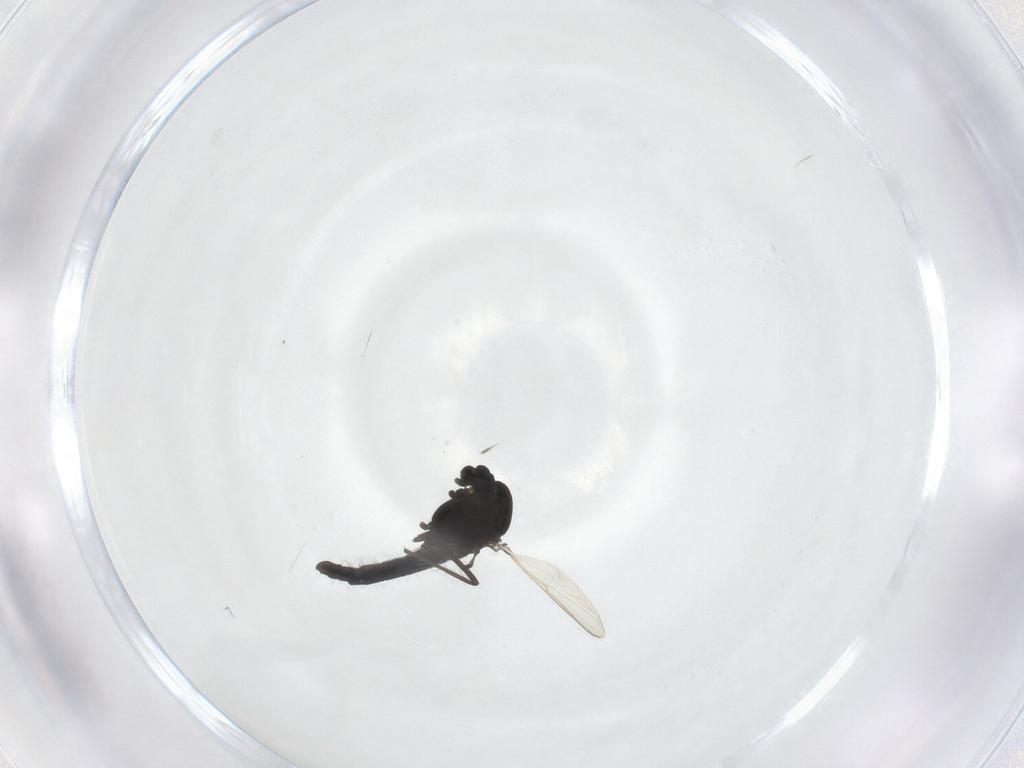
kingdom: Animalia
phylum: Arthropoda
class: Insecta
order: Diptera
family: Chironomidae
